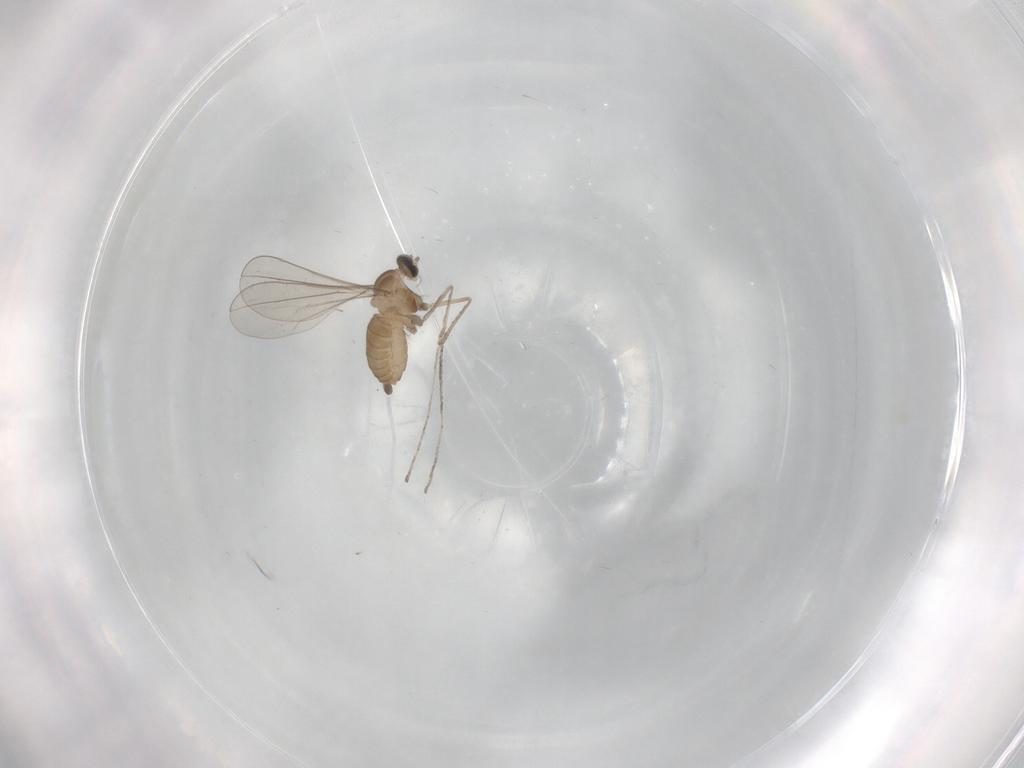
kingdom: Animalia
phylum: Arthropoda
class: Insecta
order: Diptera
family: Cecidomyiidae
